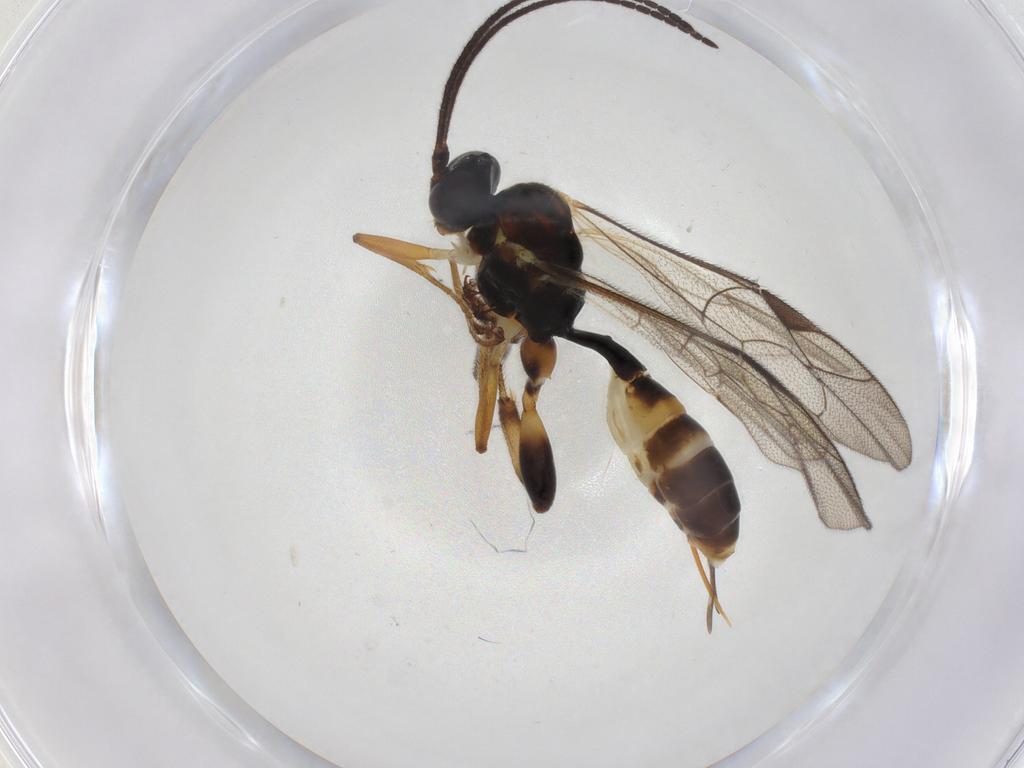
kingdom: Animalia
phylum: Arthropoda
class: Insecta
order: Hymenoptera
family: Ichneumonidae
